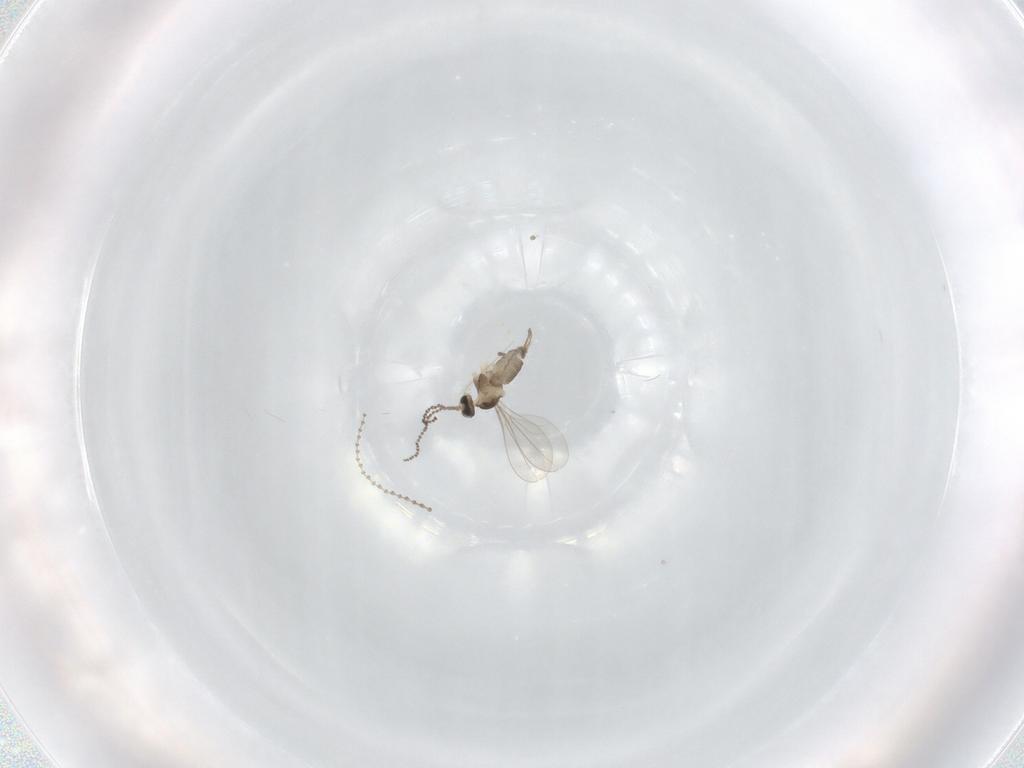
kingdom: Animalia
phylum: Arthropoda
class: Insecta
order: Diptera
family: Cecidomyiidae
